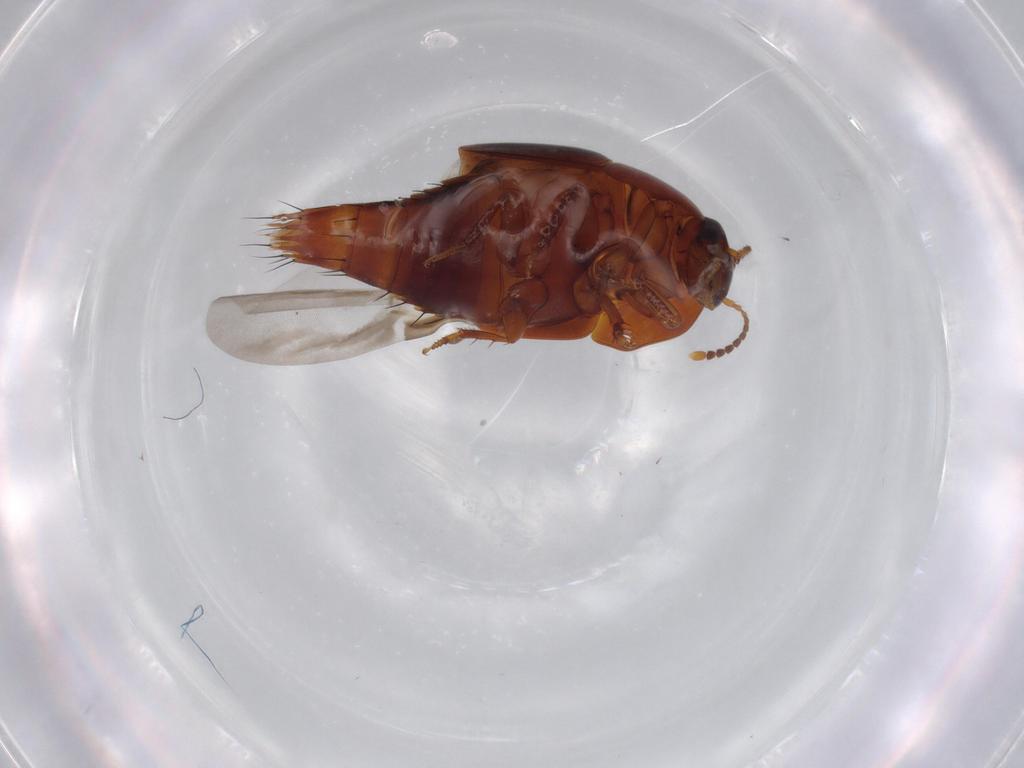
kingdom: Animalia
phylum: Arthropoda
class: Insecta
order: Coleoptera
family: Staphylinidae
